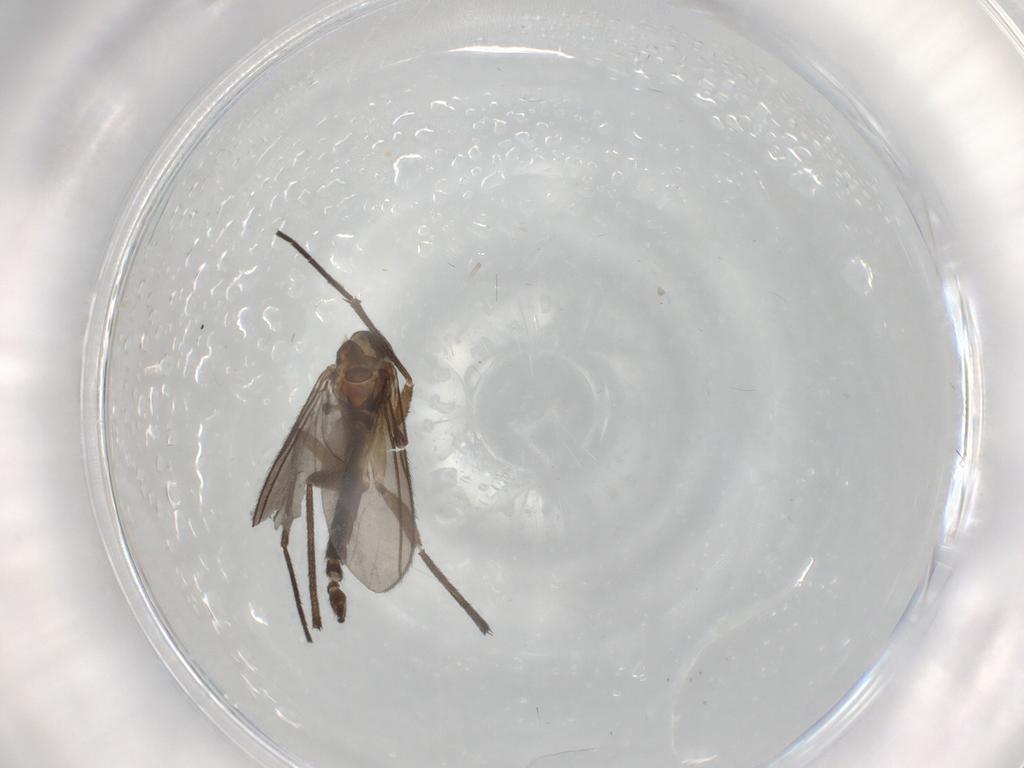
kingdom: Animalia
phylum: Arthropoda
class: Insecta
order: Diptera
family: Sciaridae
